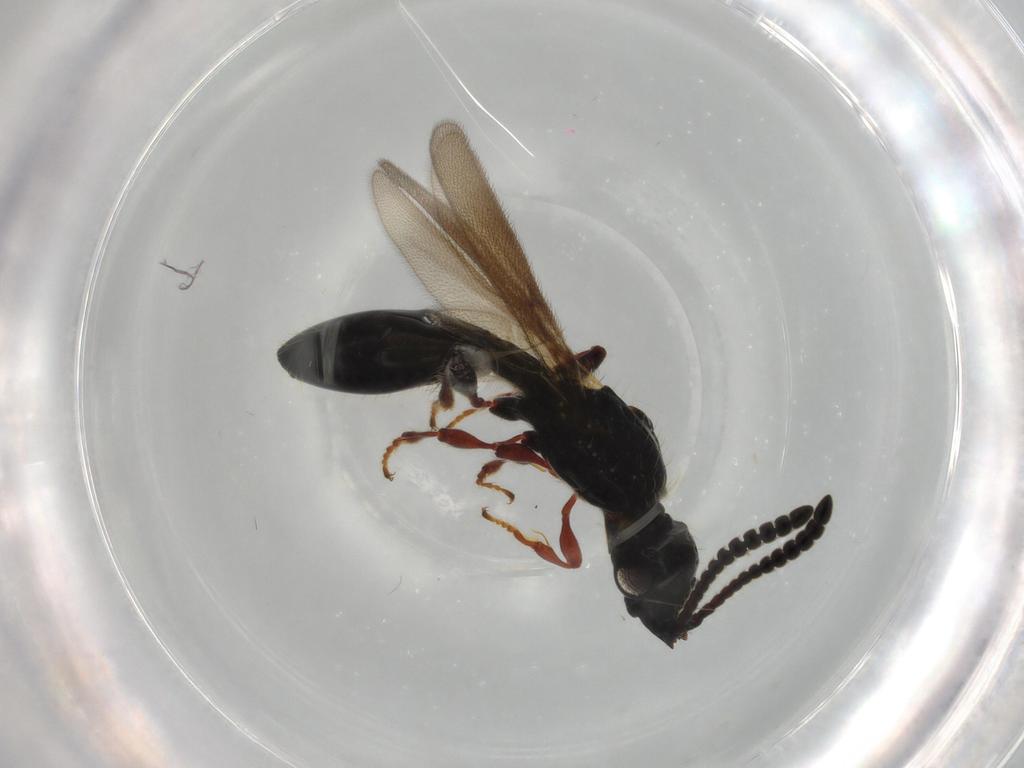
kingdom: Animalia
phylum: Arthropoda
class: Insecta
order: Hymenoptera
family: Diapriidae
